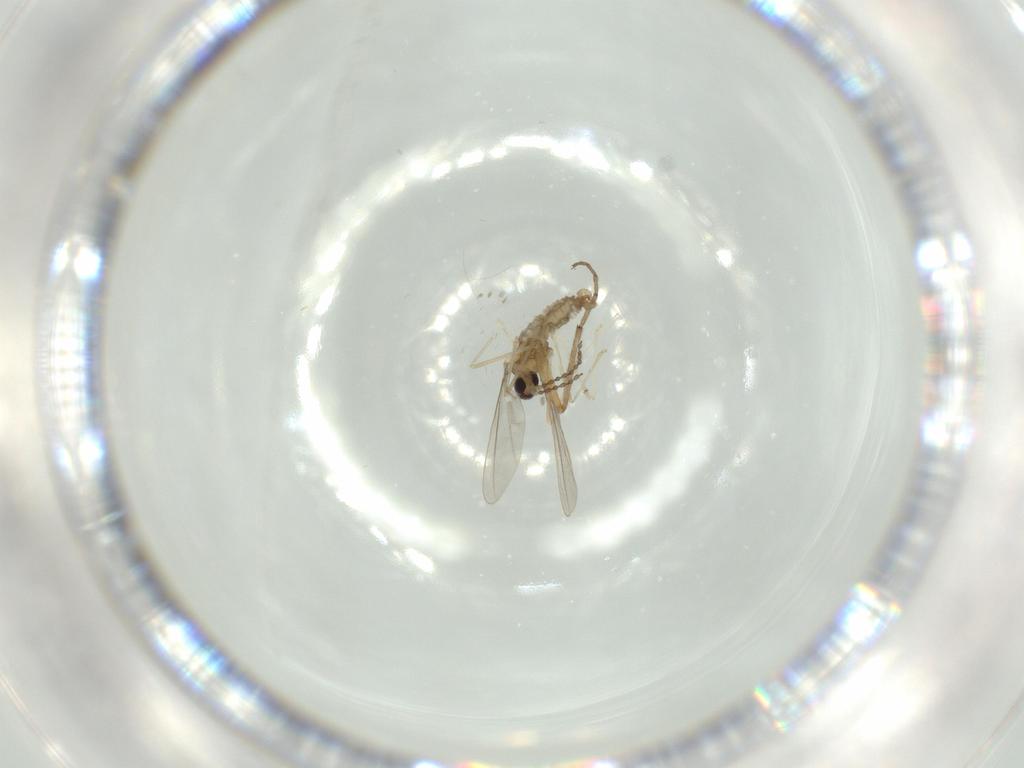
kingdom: Animalia
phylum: Arthropoda
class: Insecta
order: Diptera
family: Cecidomyiidae
